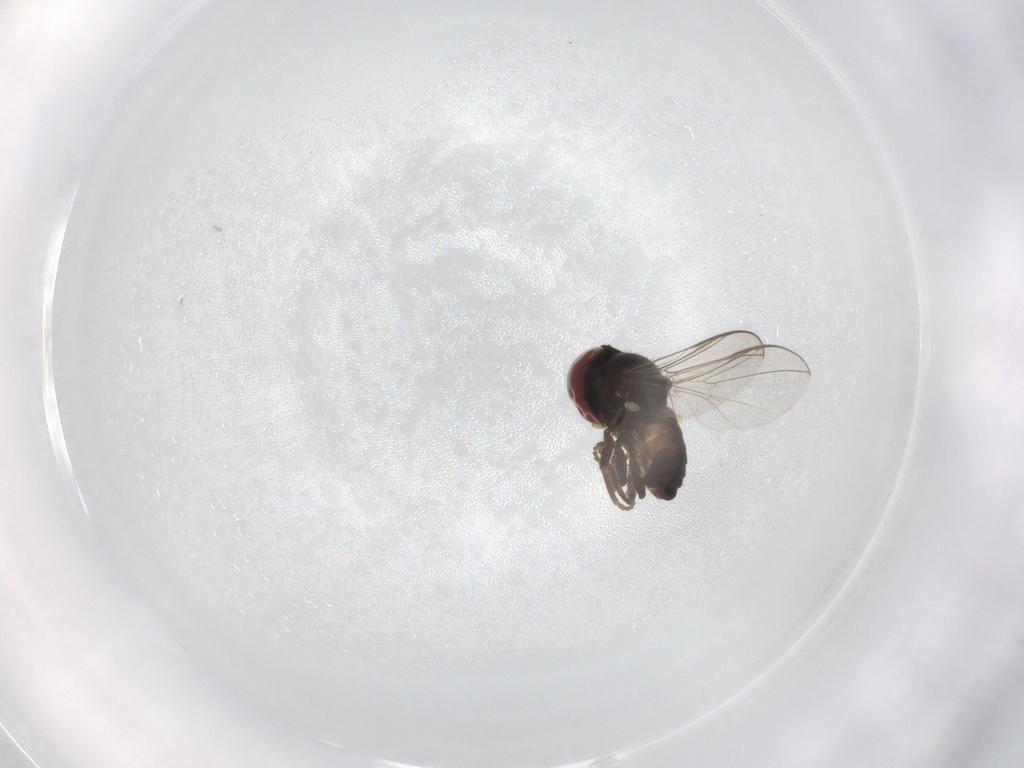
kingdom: Animalia
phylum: Arthropoda
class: Insecta
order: Diptera
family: Pipunculidae
